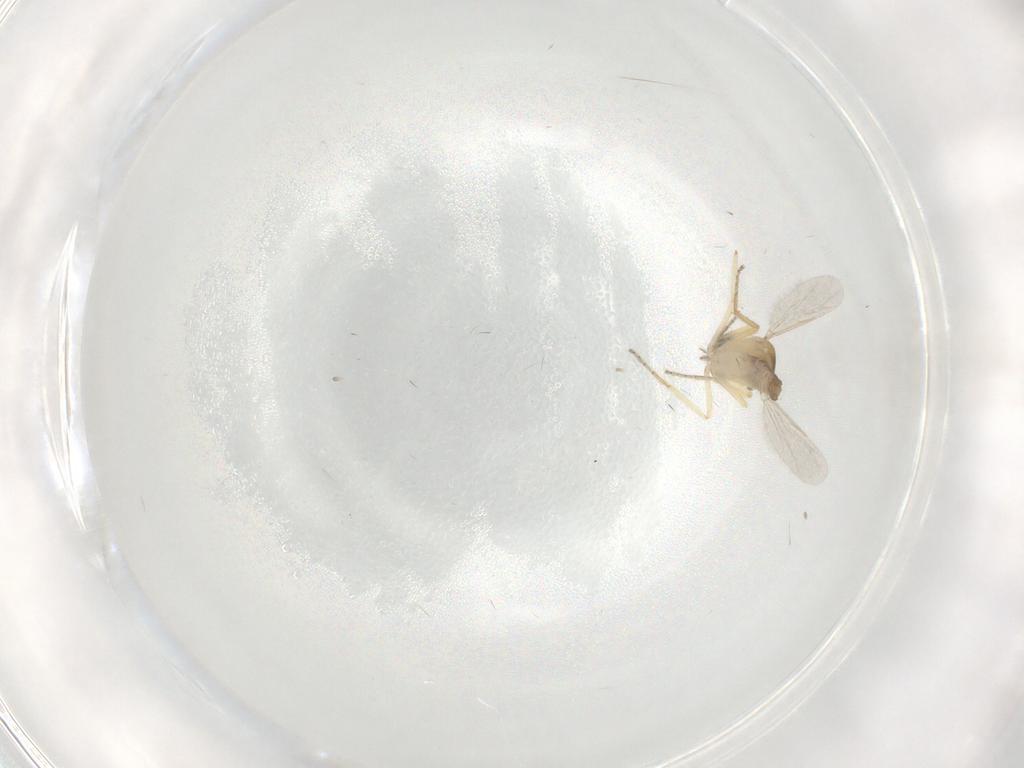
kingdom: Animalia
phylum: Arthropoda
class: Insecta
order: Diptera
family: Ceratopogonidae
